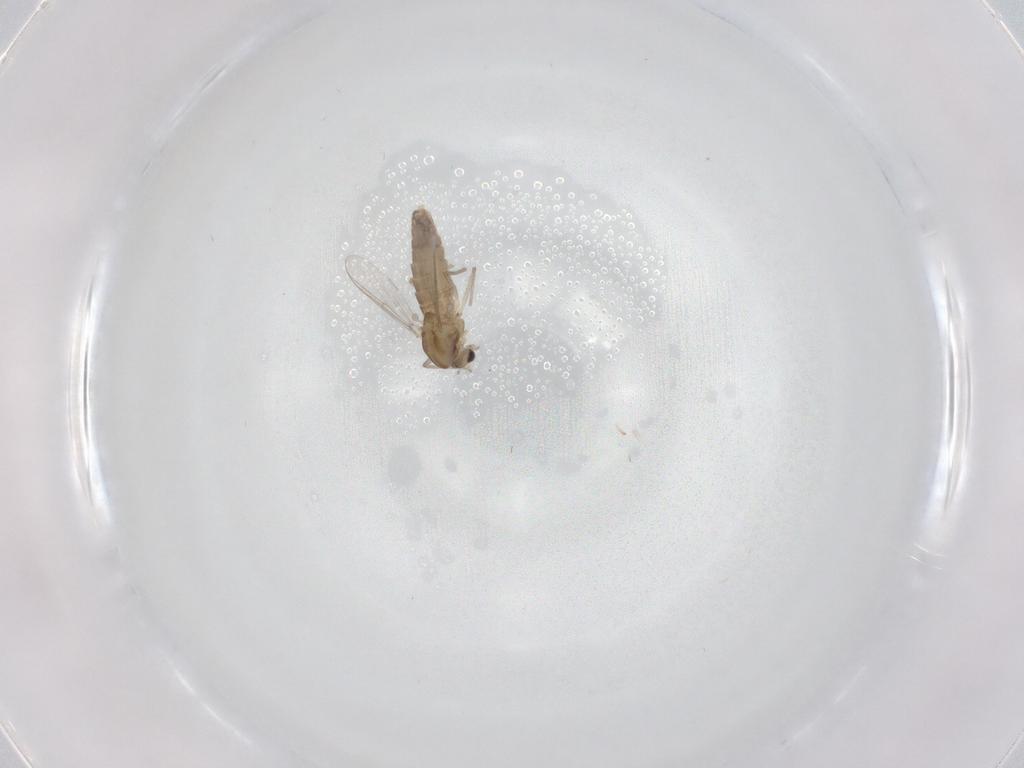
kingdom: Animalia
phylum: Arthropoda
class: Insecta
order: Diptera
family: Chironomidae
